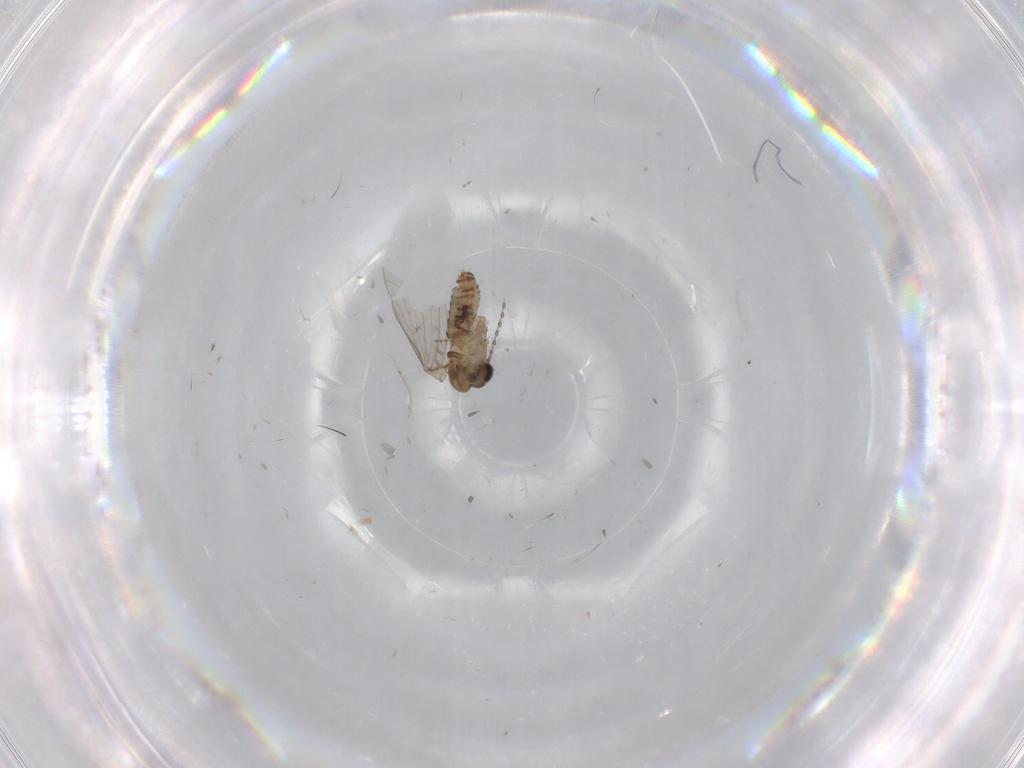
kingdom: Animalia
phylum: Arthropoda
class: Insecta
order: Diptera
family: Chironomidae
